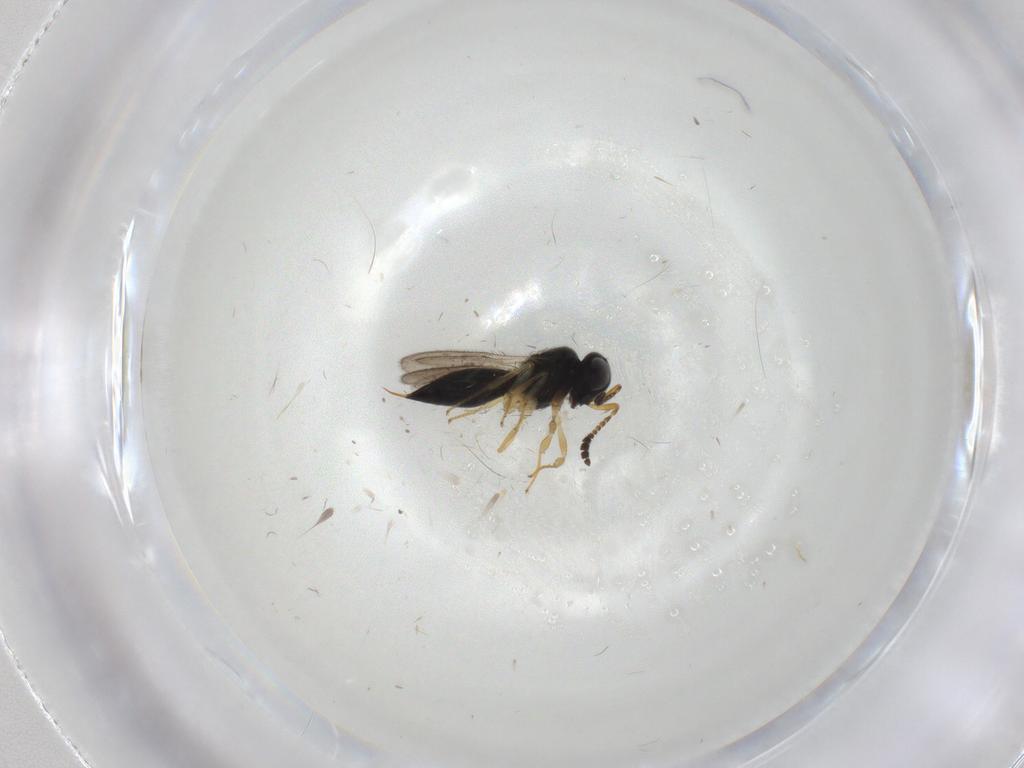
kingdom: Animalia
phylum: Arthropoda
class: Insecta
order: Hymenoptera
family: Scelionidae
